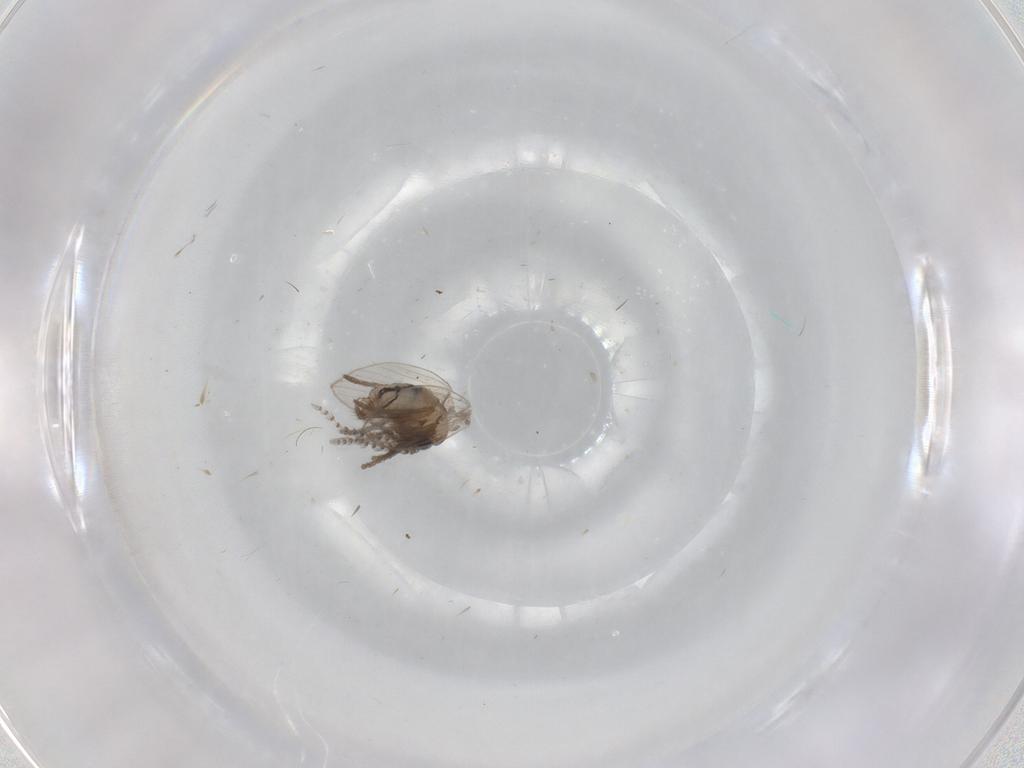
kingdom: Animalia
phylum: Arthropoda
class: Insecta
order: Diptera
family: Psychodidae
